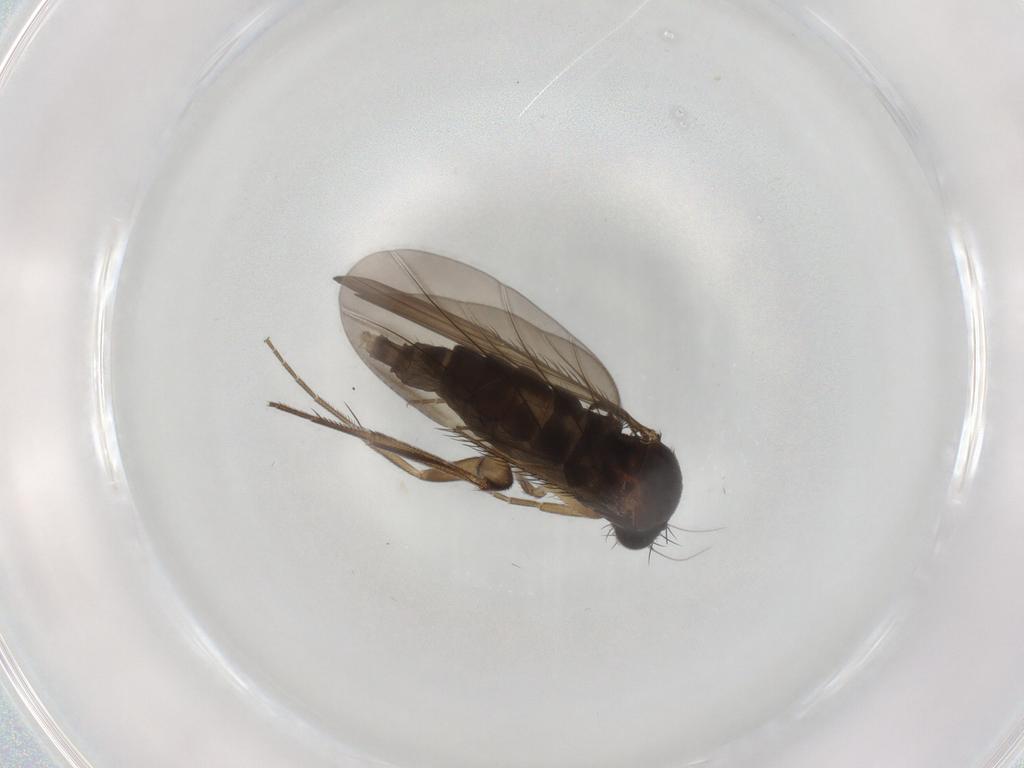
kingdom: Animalia
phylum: Arthropoda
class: Insecta
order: Diptera
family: Phoridae
